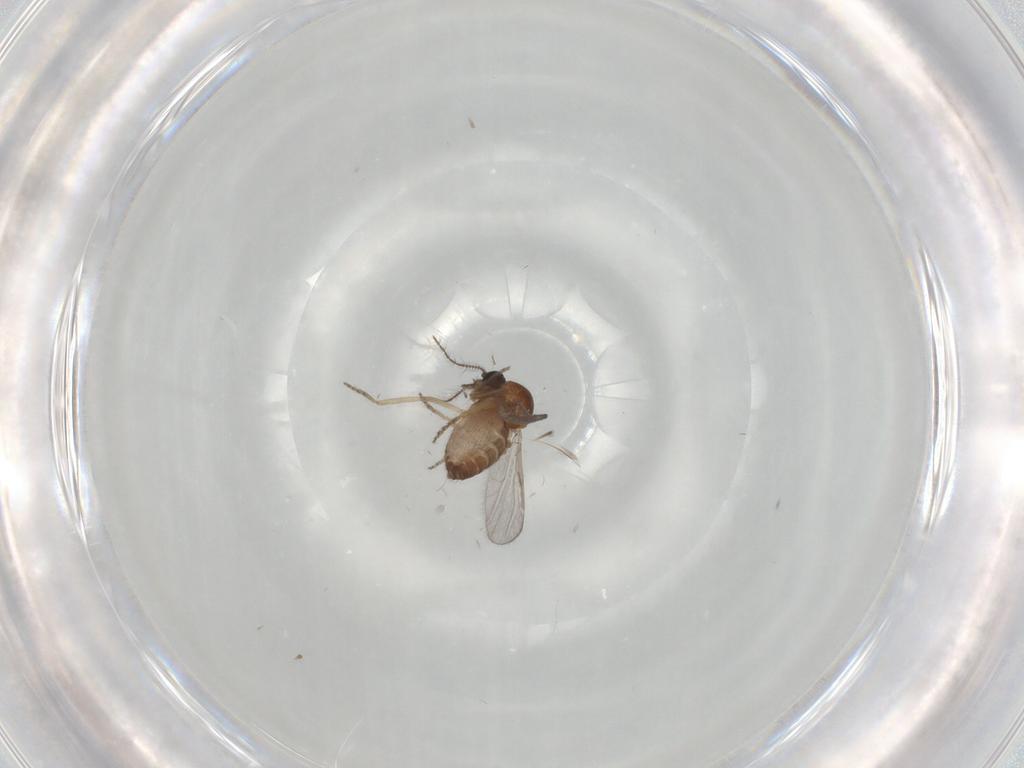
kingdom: Animalia
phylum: Arthropoda
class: Insecta
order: Diptera
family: Ceratopogonidae
